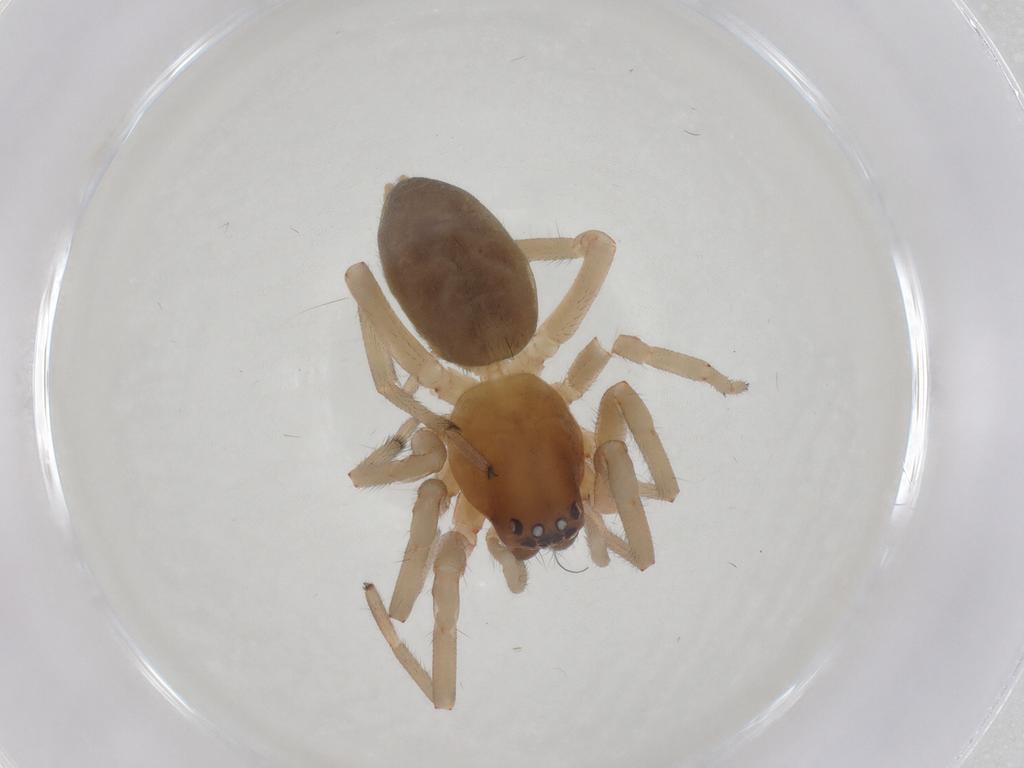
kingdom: Animalia
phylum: Arthropoda
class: Arachnida
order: Araneae
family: Trachelidae
